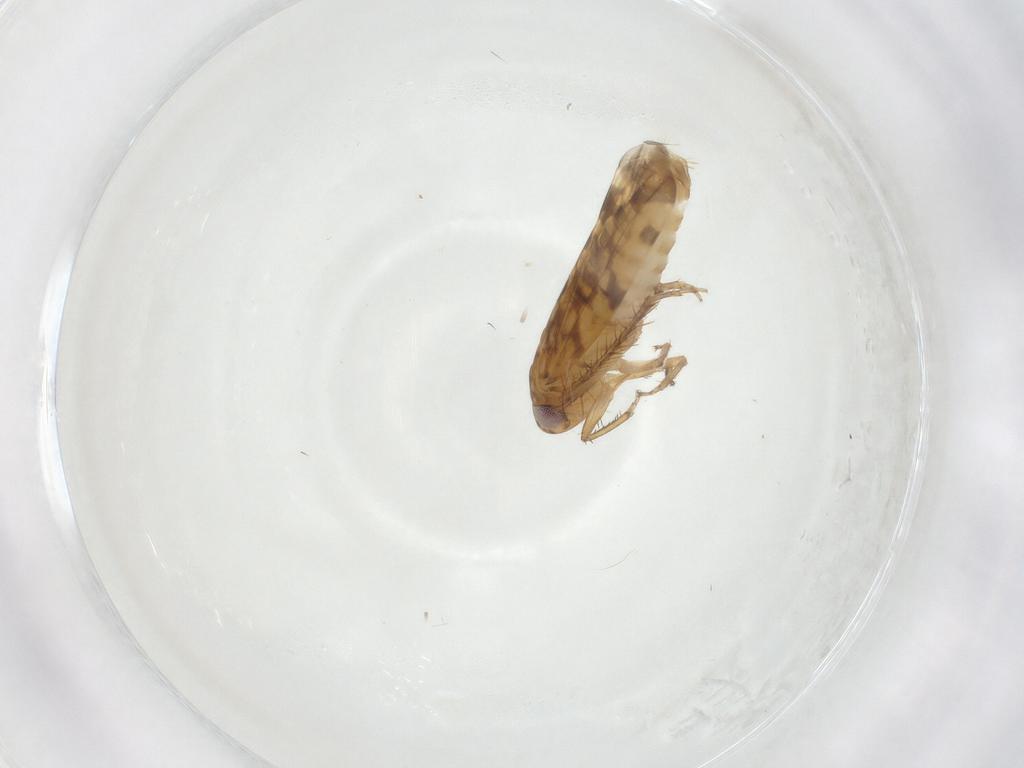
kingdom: Animalia
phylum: Arthropoda
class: Insecta
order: Hemiptera
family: Cicadellidae
